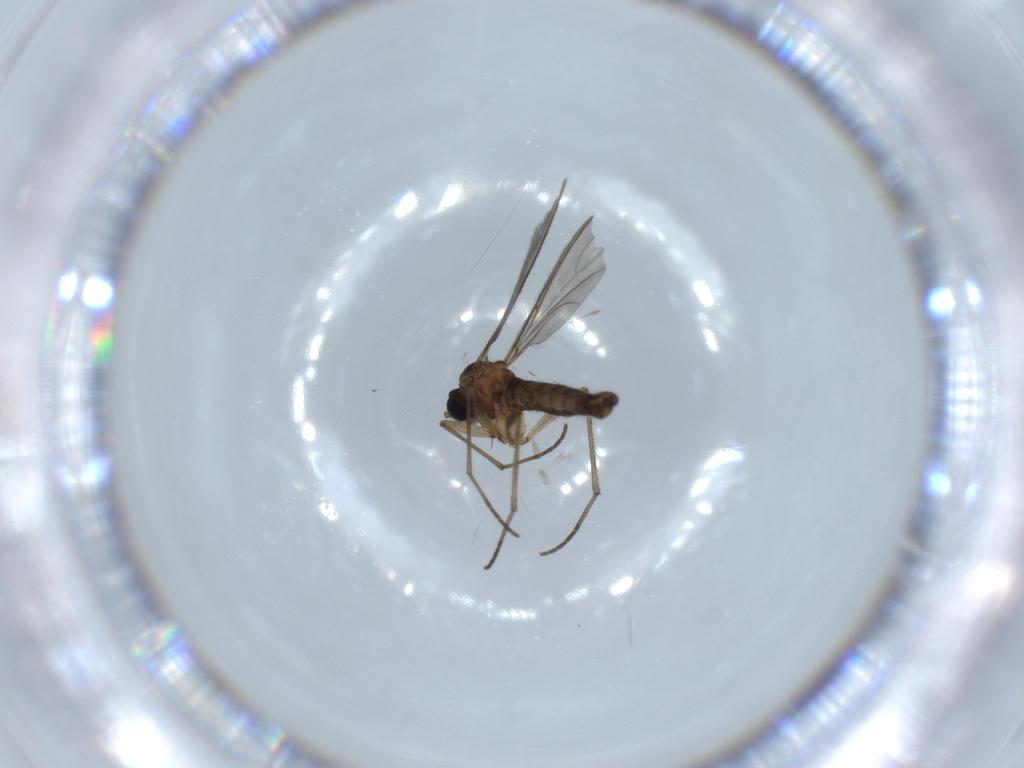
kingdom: Animalia
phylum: Arthropoda
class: Insecta
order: Diptera
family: Sciaridae
